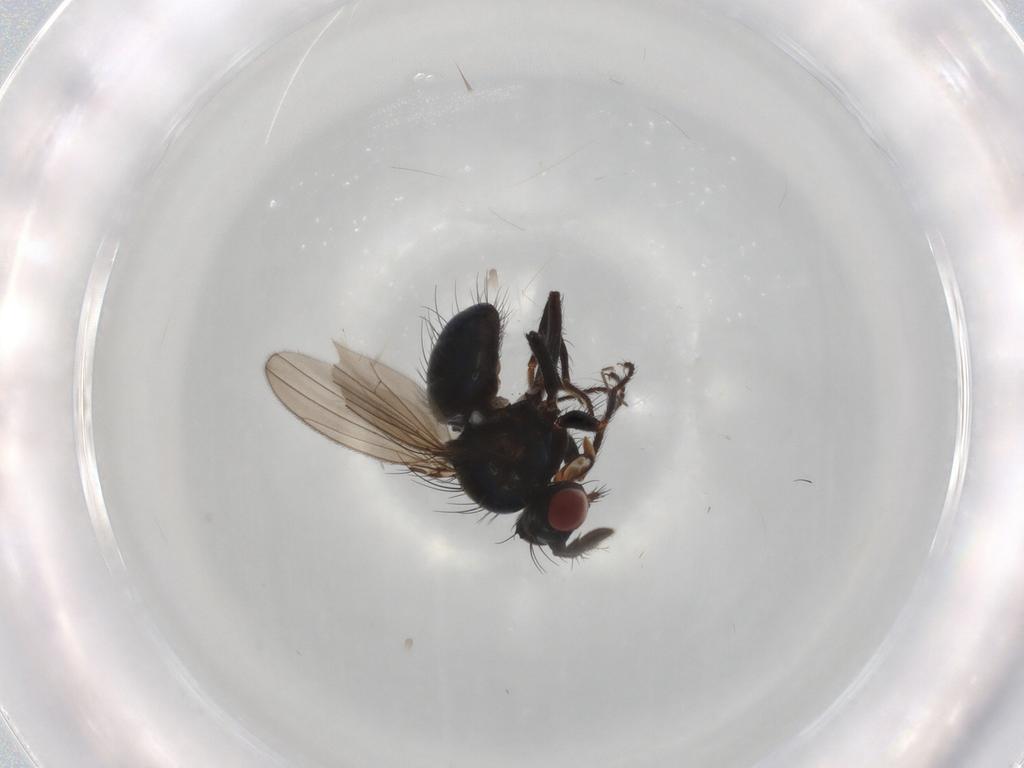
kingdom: Animalia
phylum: Arthropoda
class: Insecta
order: Diptera
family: Ephydridae
